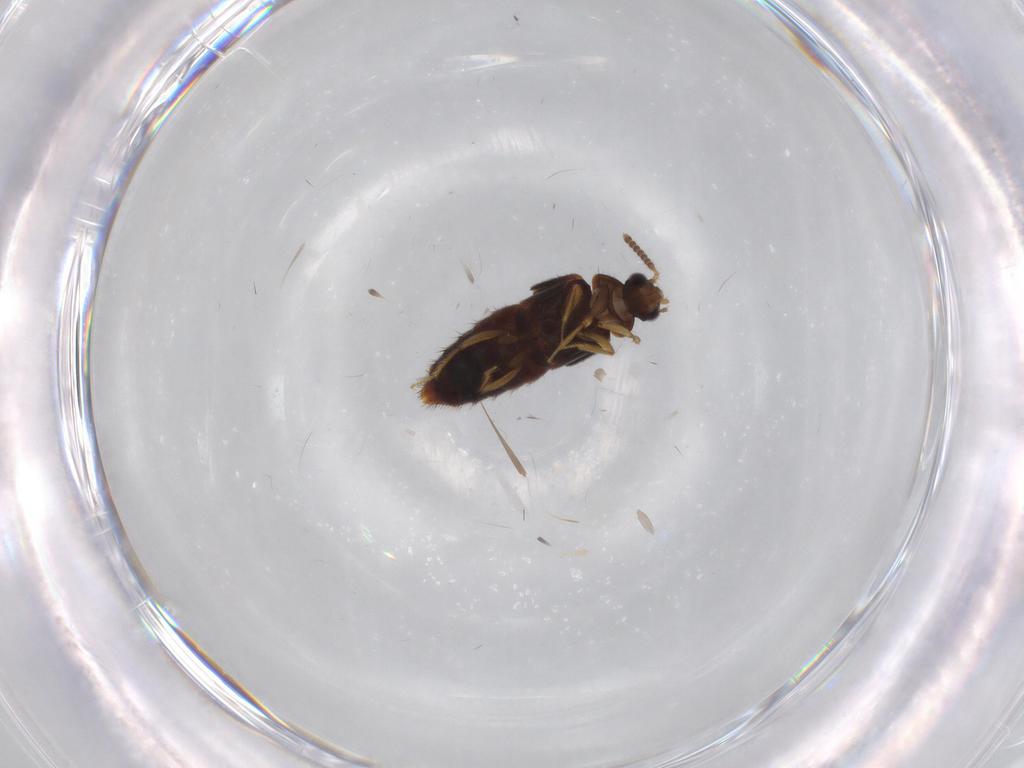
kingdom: Animalia
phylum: Arthropoda
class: Insecta
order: Coleoptera
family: Staphylinidae
